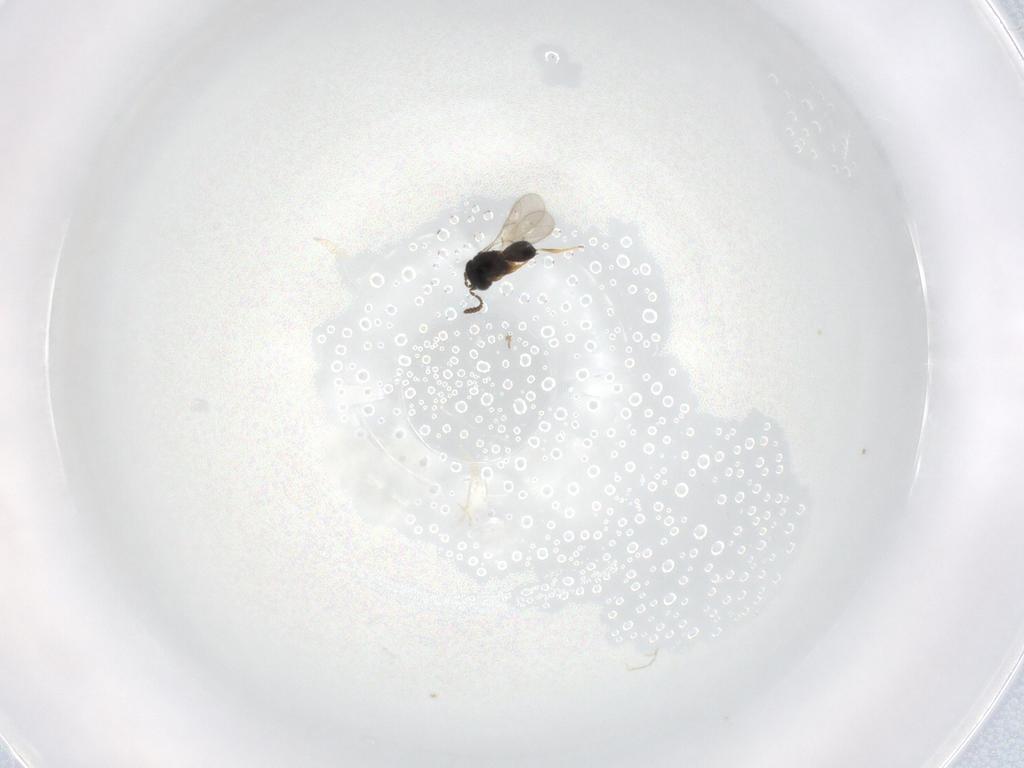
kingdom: Animalia
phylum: Arthropoda
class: Insecta
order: Hymenoptera
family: Scelionidae
